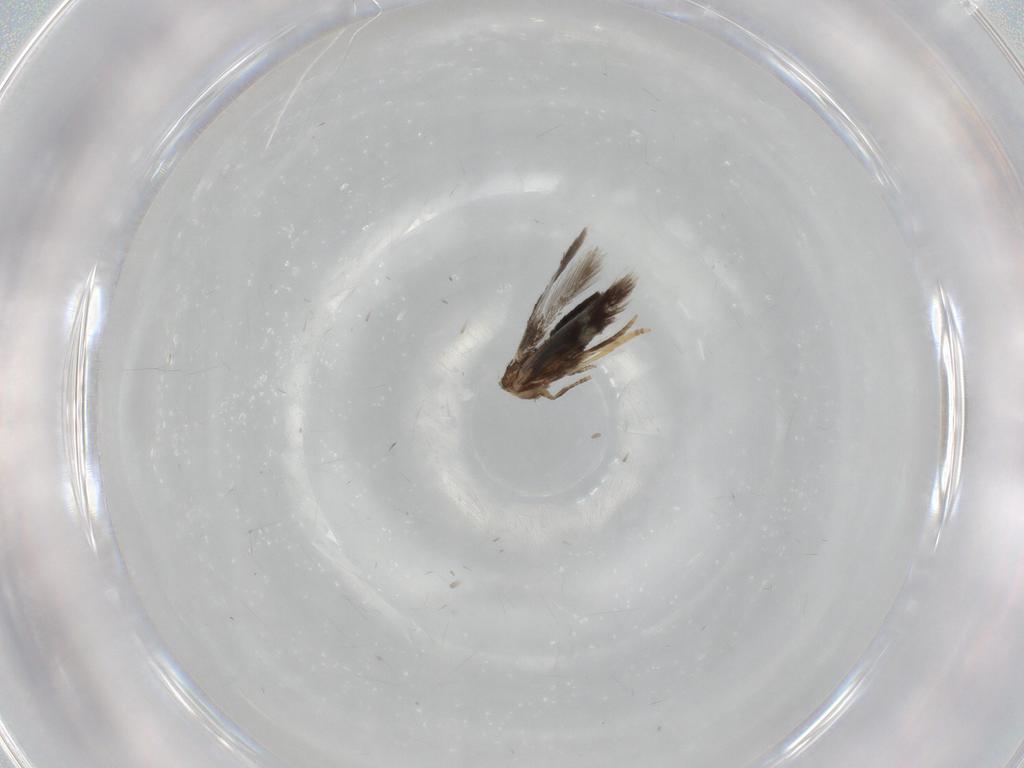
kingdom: Animalia
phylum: Arthropoda
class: Insecta
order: Lepidoptera
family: Nepticulidae
